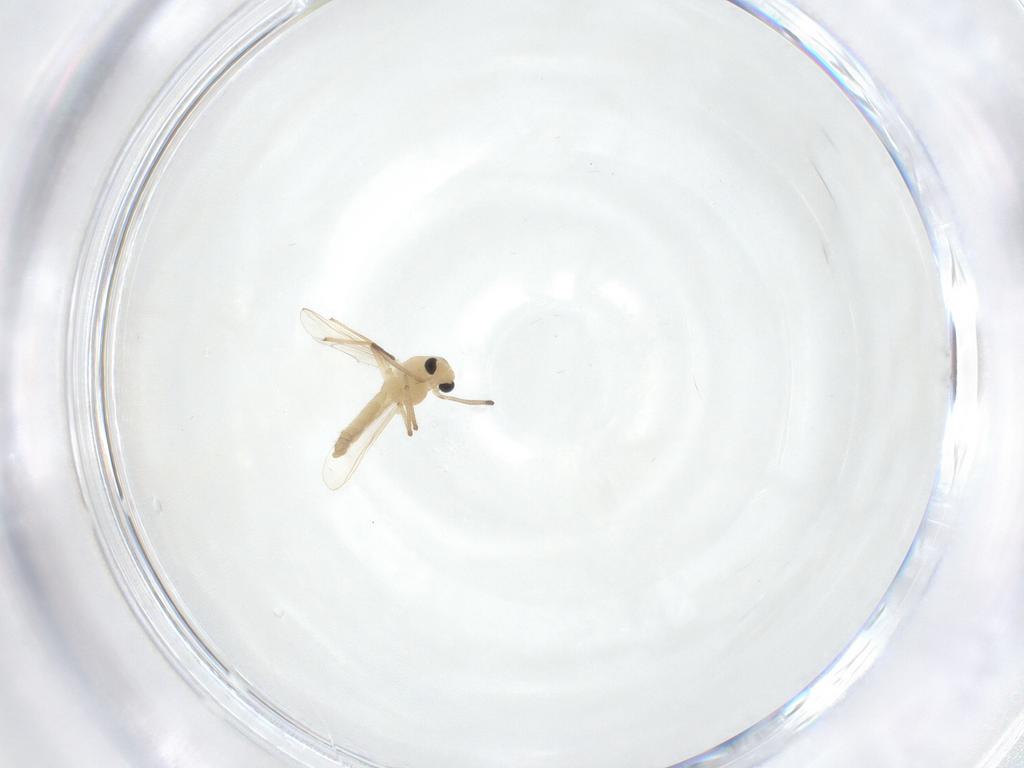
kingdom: Animalia
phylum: Arthropoda
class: Insecta
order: Diptera
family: Chironomidae
